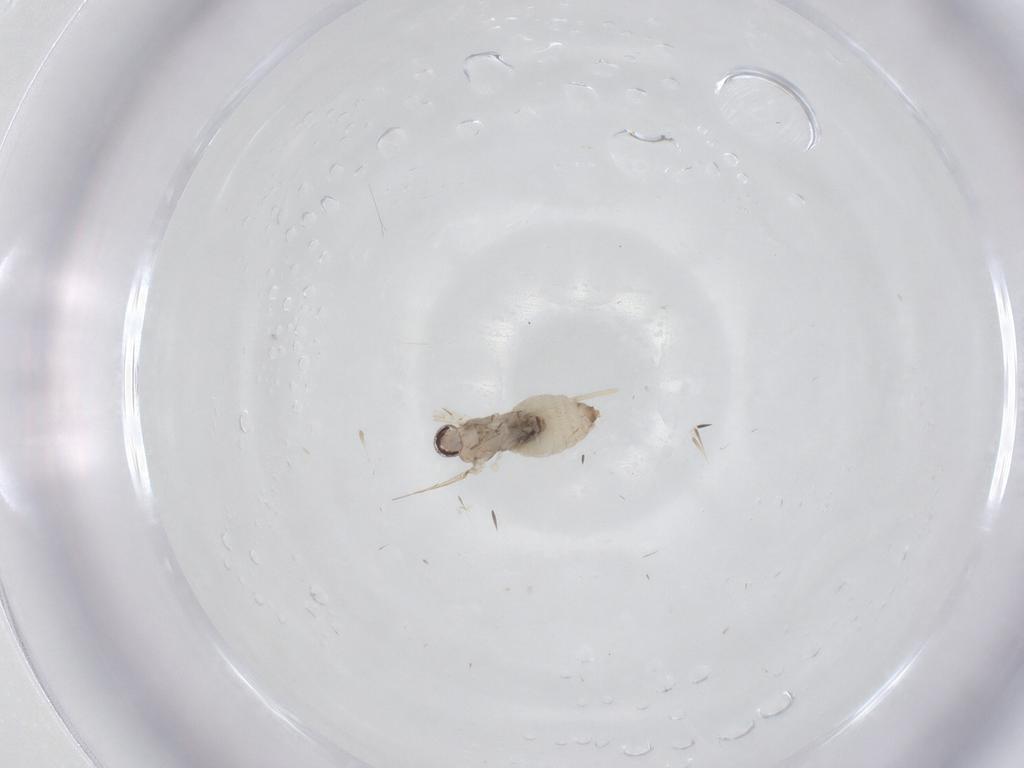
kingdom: Animalia
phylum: Arthropoda
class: Insecta
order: Diptera
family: Cecidomyiidae
